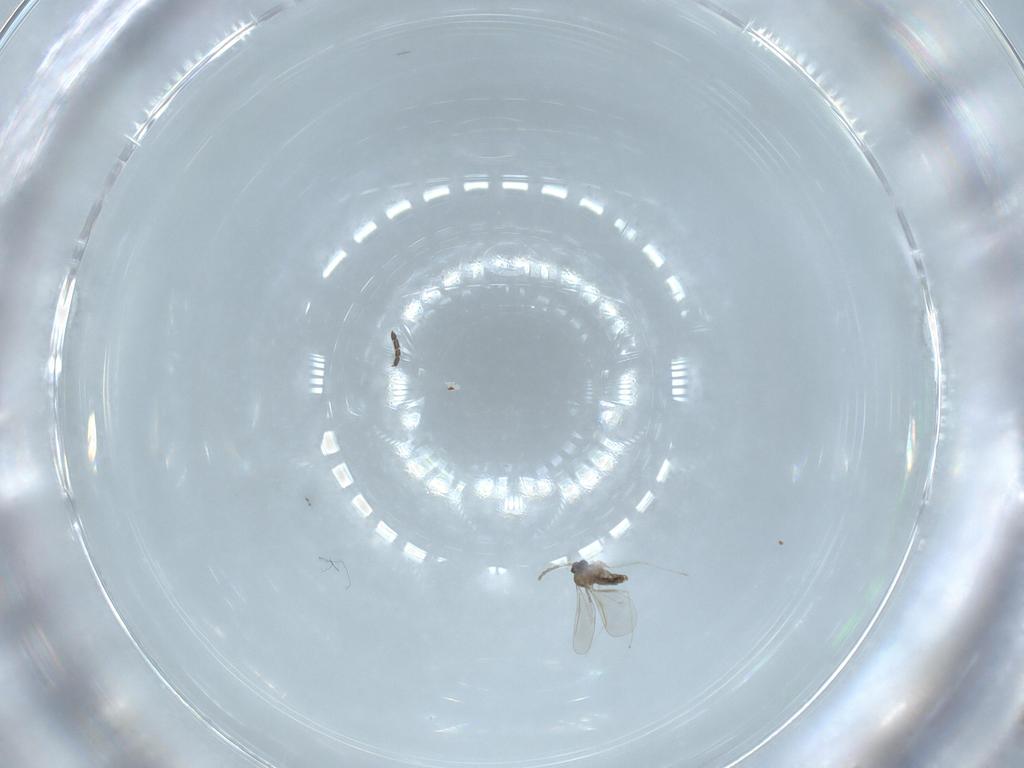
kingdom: Animalia
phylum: Arthropoda
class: Insecta
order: Diptera
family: Sciaridae
